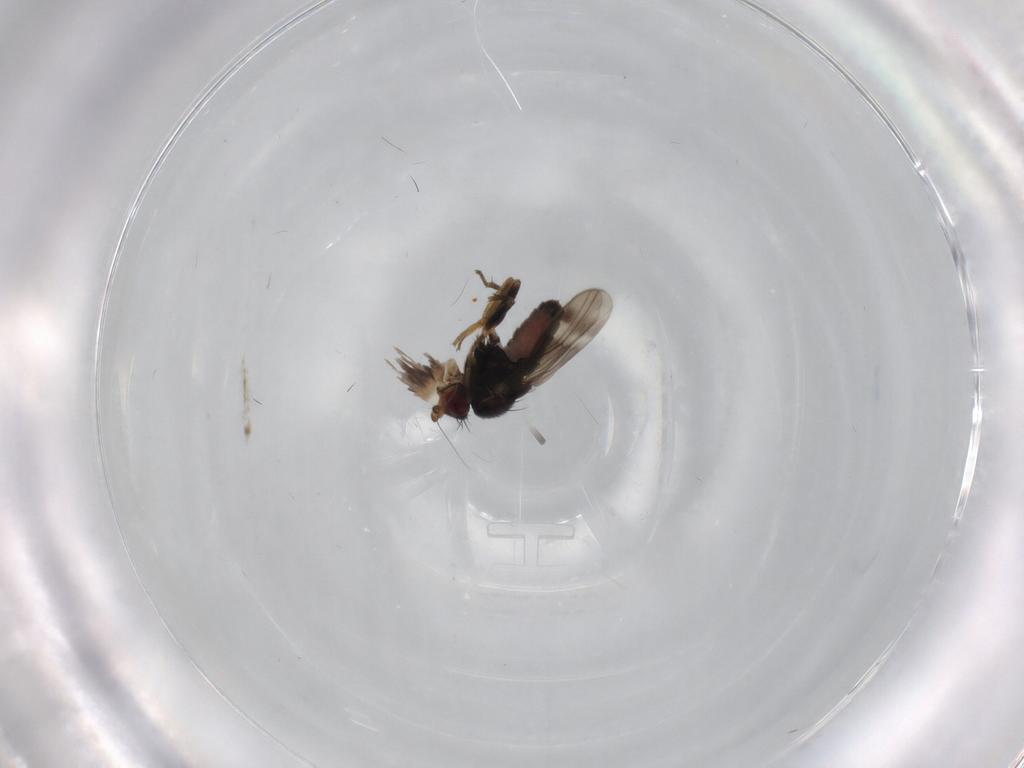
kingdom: Animalia
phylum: Arthropoda
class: Insecta
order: Diptera
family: Sphaeroceridae
